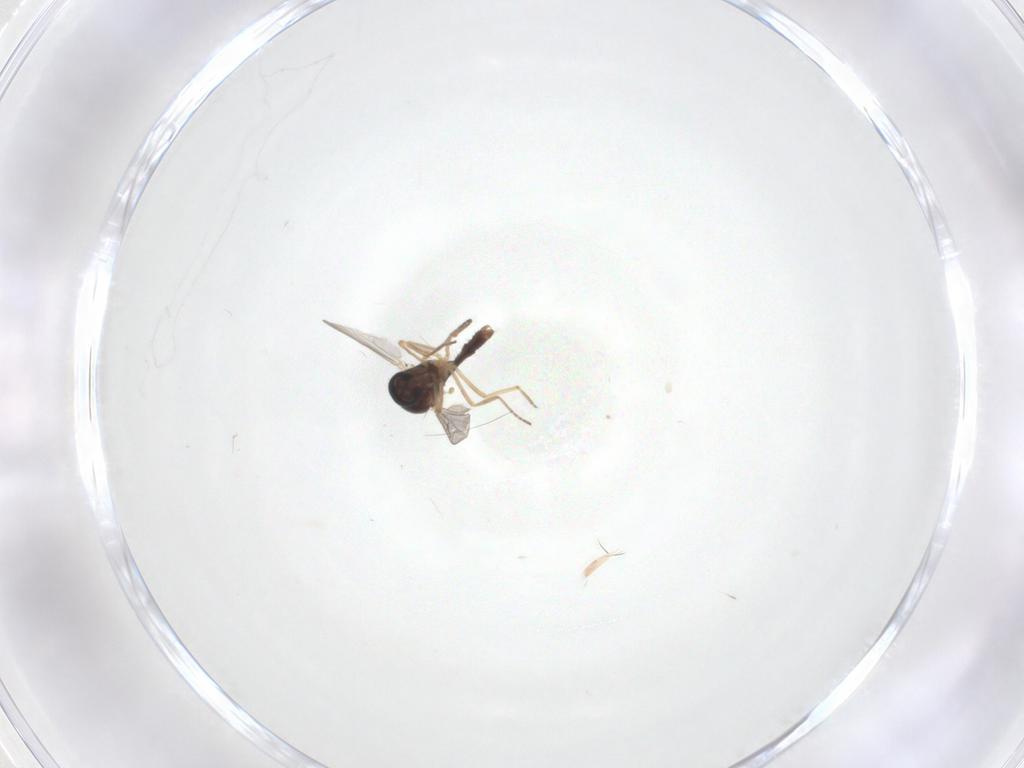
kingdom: Animalia
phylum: Arthropoda
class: Insecta
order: Diptera
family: Ceratopogonidae
